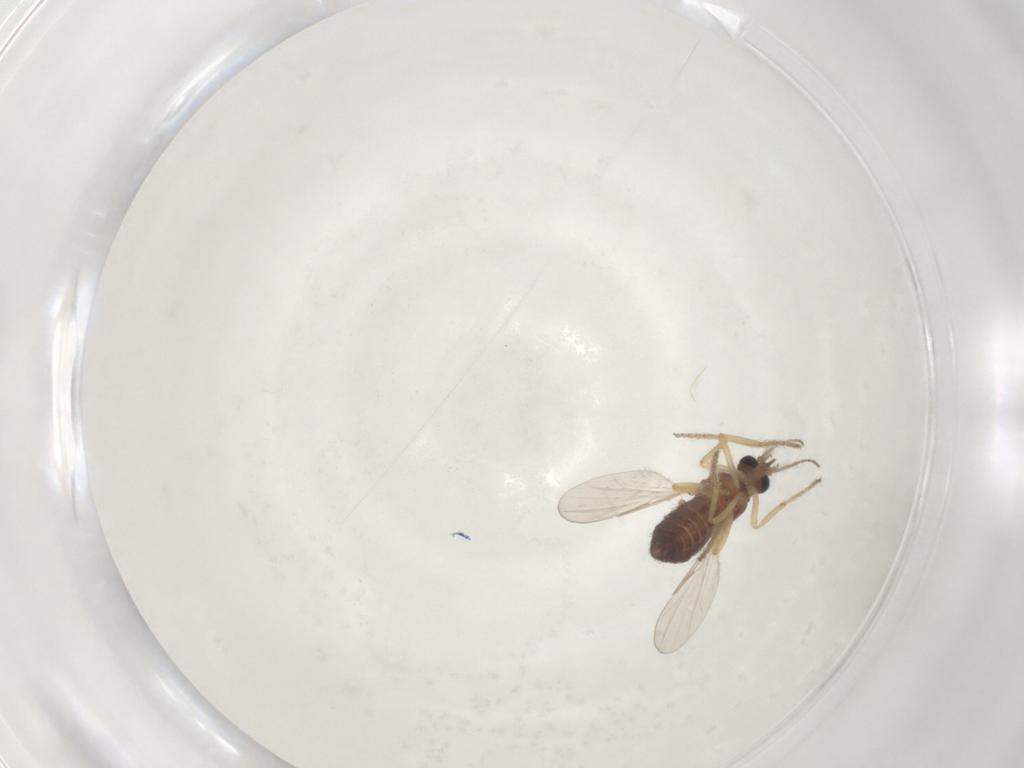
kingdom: Animalia
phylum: Arthropoda
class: Insecta
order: Diptera
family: Ceratopogonidae
